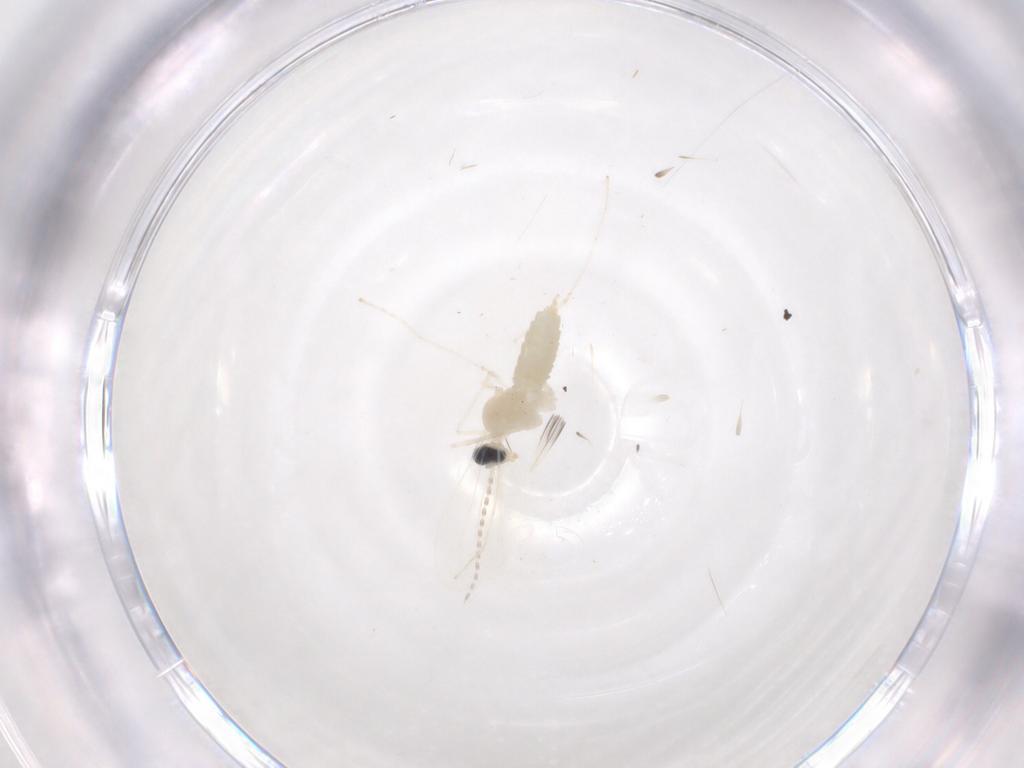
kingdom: Animalia
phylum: Arthropoda
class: Insecta
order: Diptera
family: Cecidomyiidae
